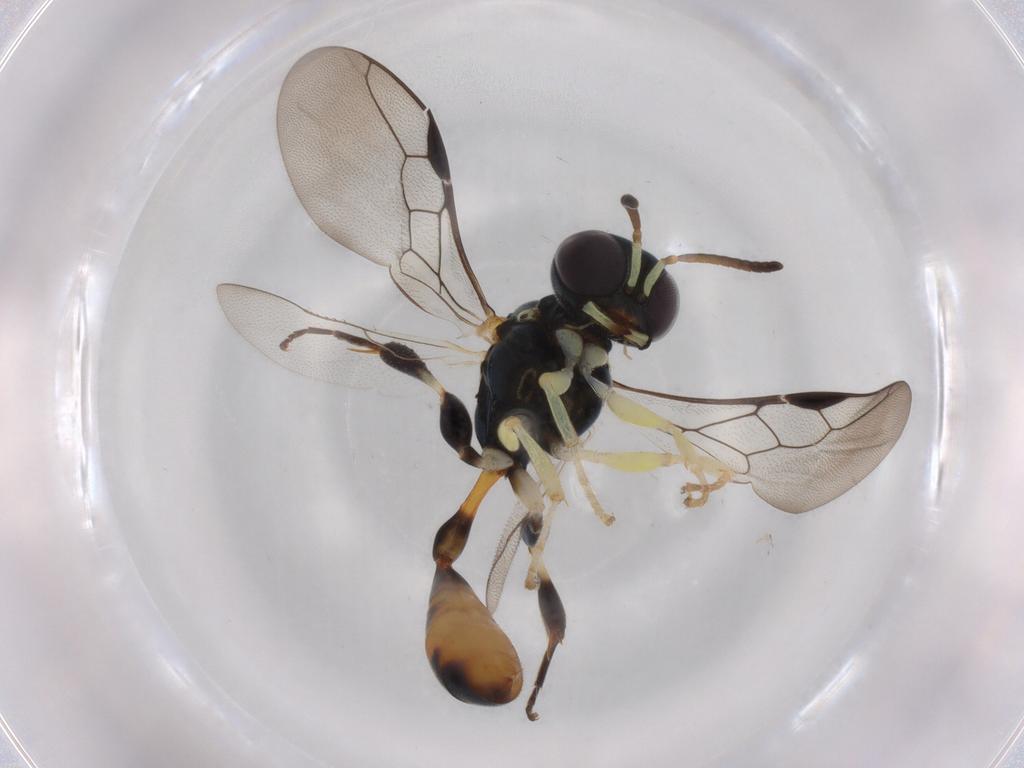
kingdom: Animalia
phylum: Arthropoda
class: Insecta
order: Hymenoptera
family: Crabronidae
